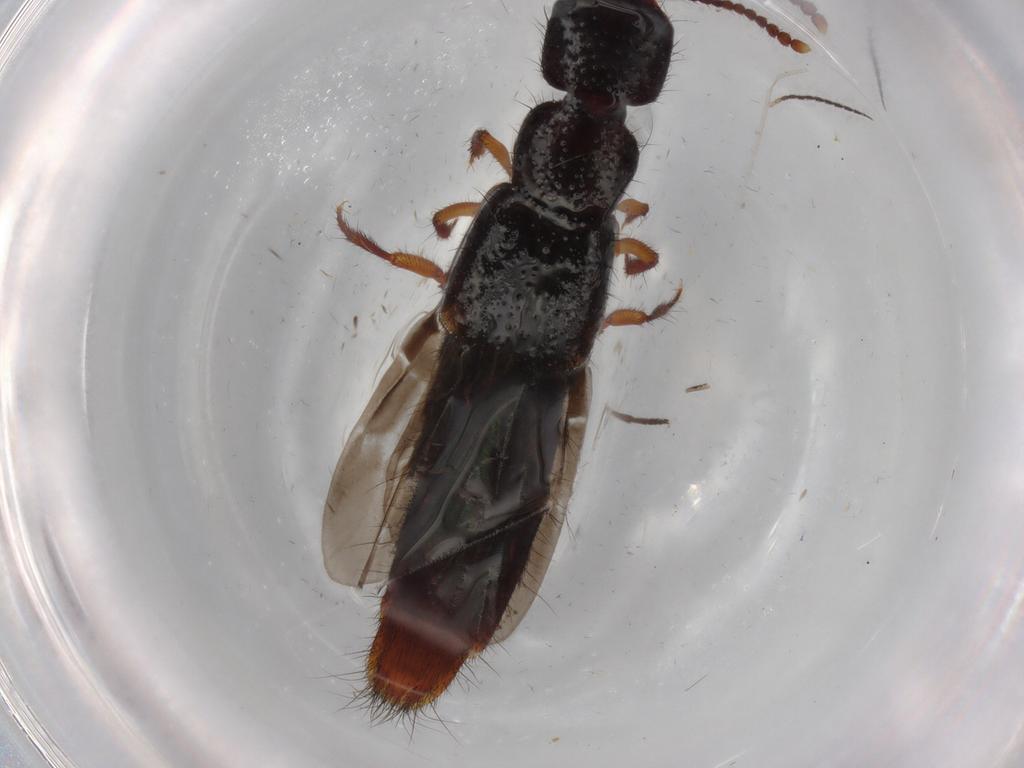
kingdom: Animalia
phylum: Arthropoda
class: Insecta
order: Coleoptera
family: Staphylinidae
